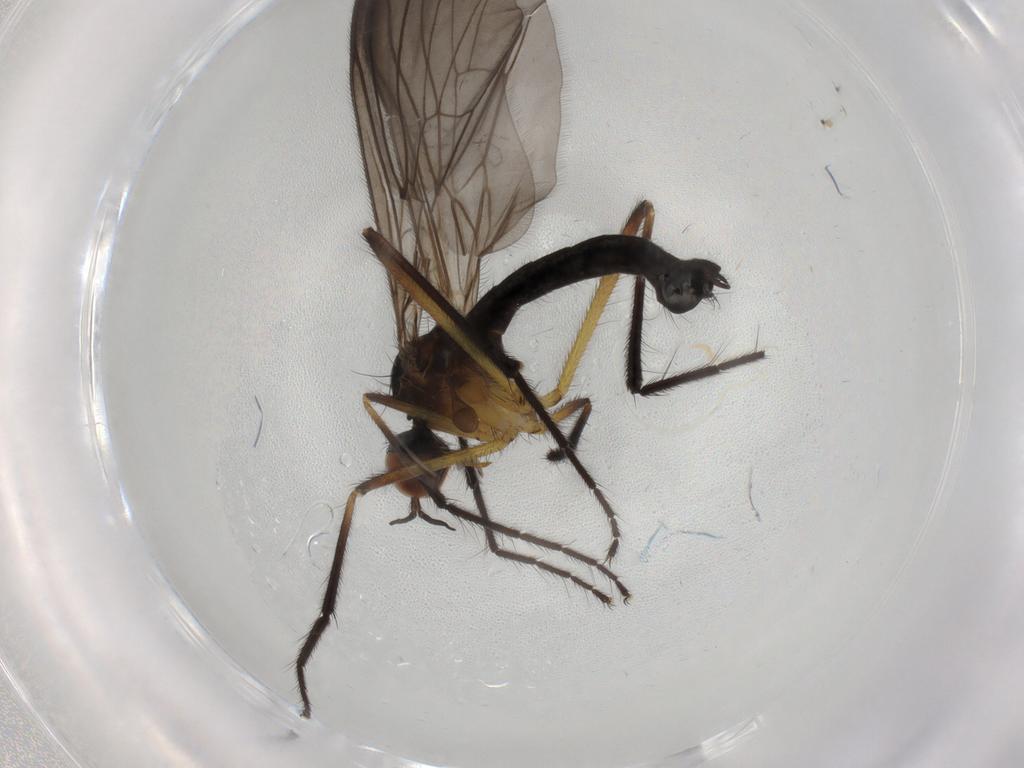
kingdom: Animalia
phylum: Arthropoda
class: Insecta
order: Diptera
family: Empididae
